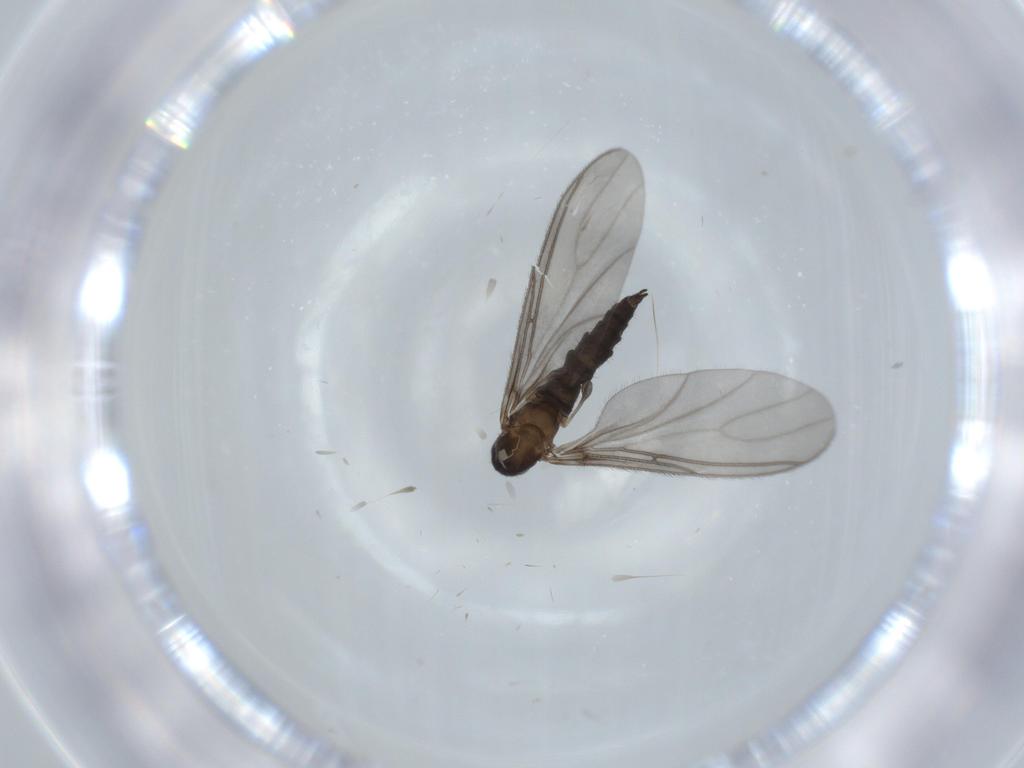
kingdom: Animalia
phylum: Arthropoda
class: Insecta
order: Diptera
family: Sciaridae
